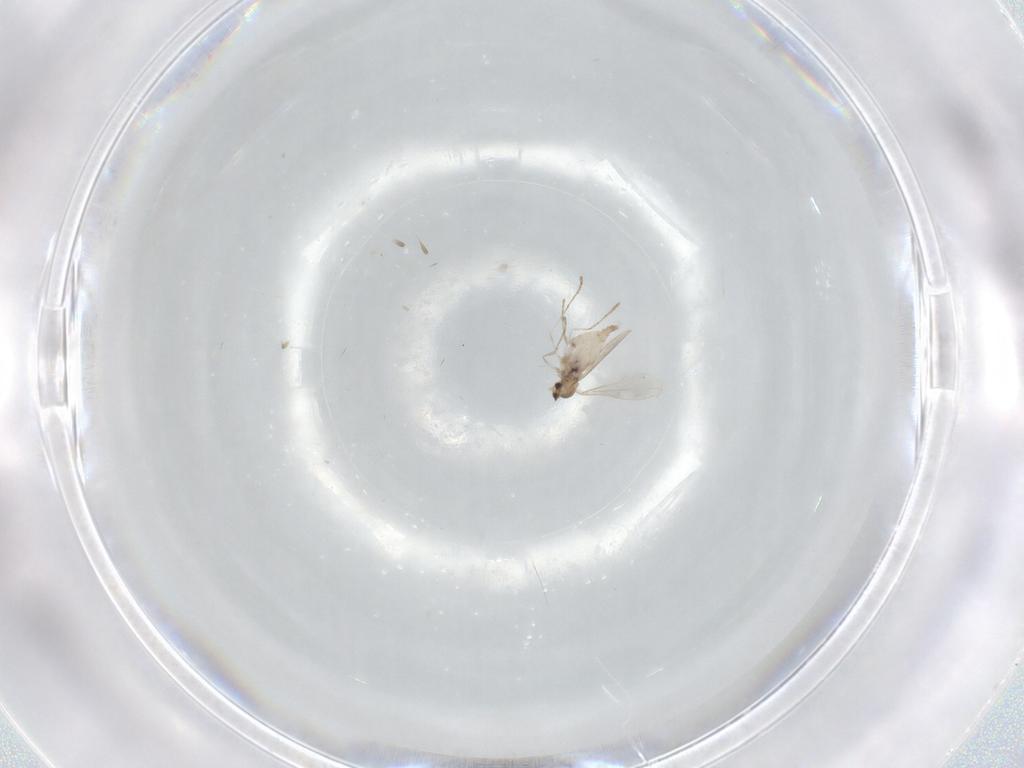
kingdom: Animalia
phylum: Arthropoda
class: Insecta
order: Diptera
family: Cecidomyiidae
